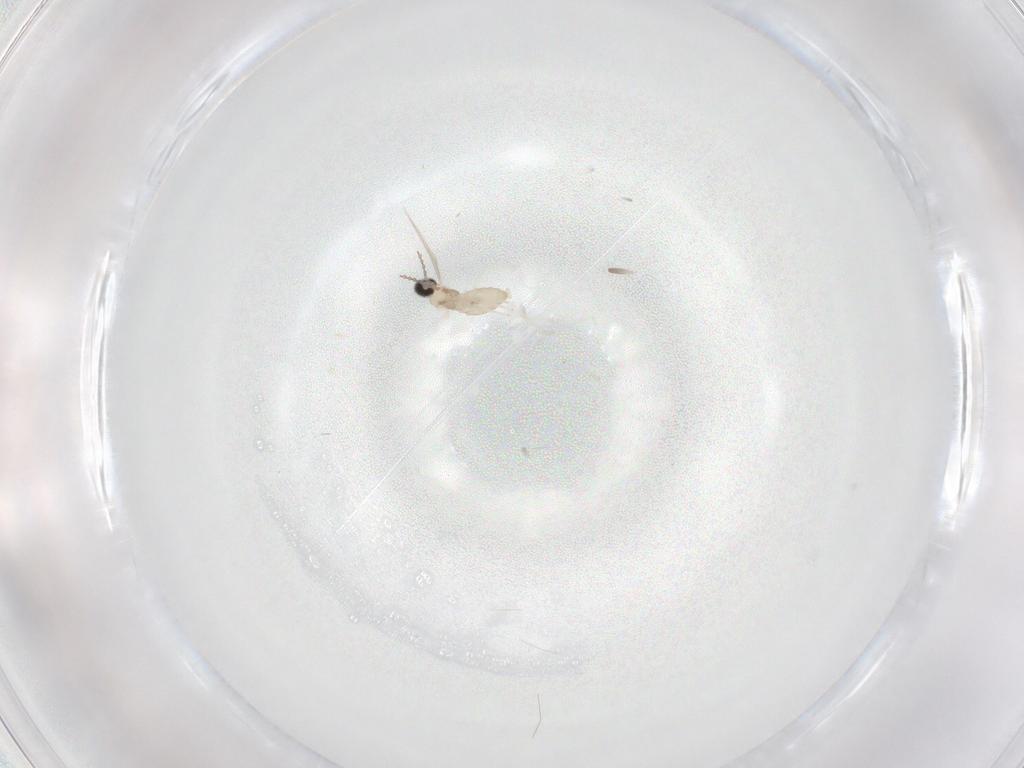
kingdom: Animalia
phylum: Arthropoda
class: Insecta
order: Diptera
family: Cecidomyiidae
